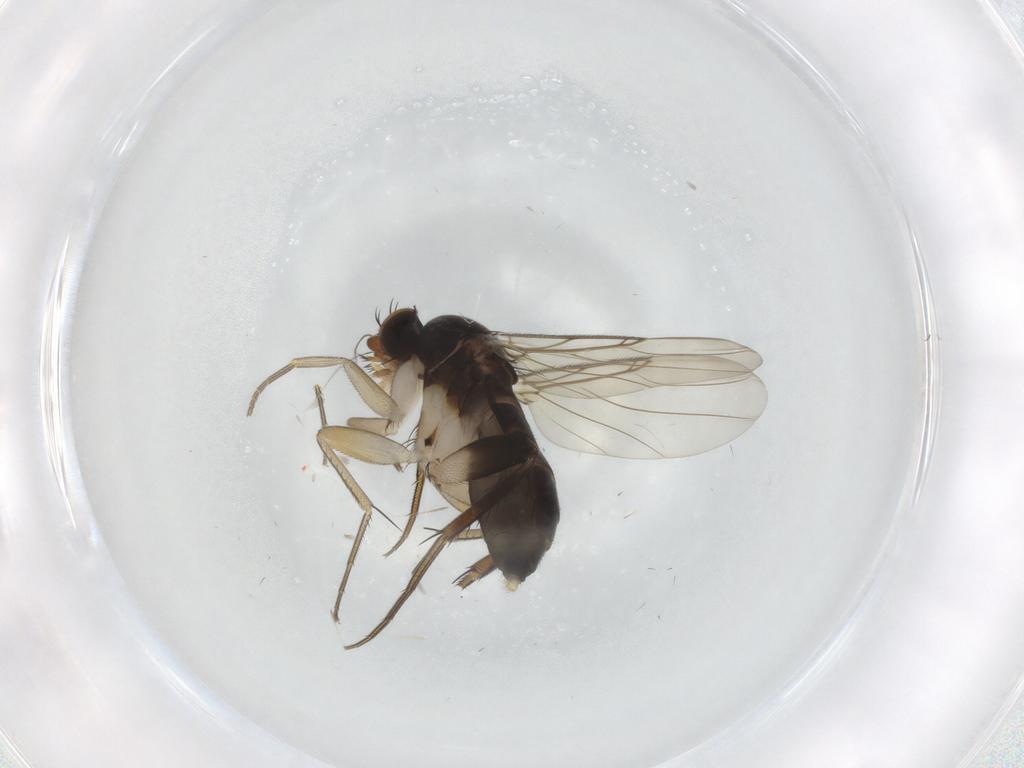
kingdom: Animalia
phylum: Arthropoda
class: Insecta
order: Diptera
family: Phoridae
